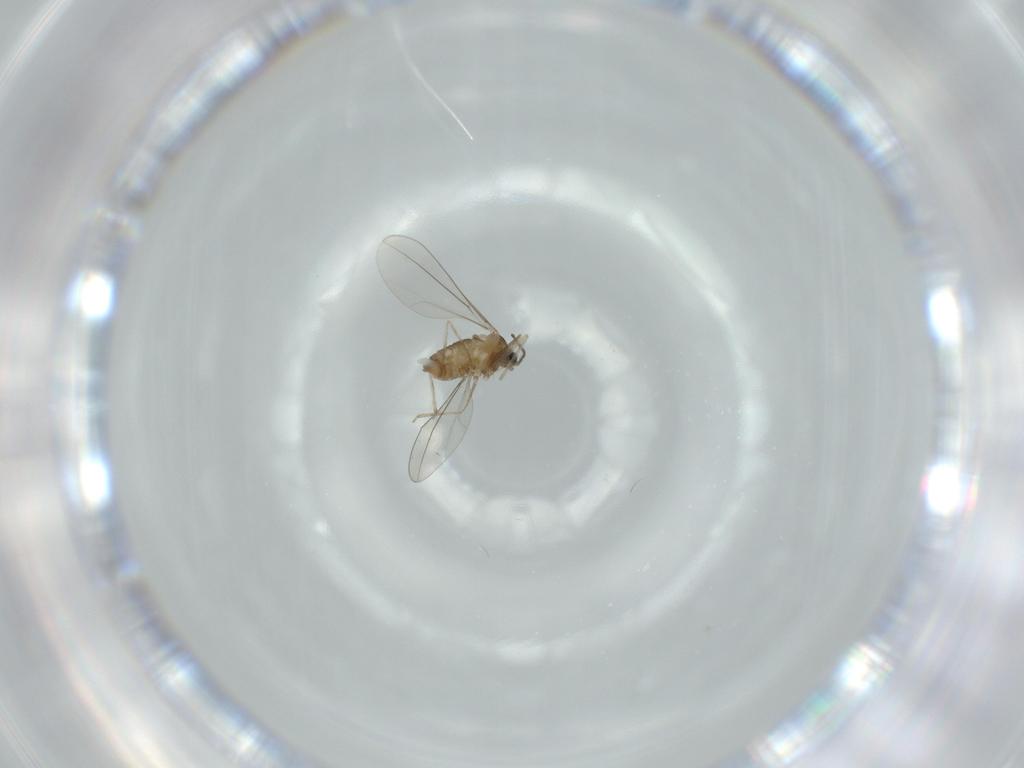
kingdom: Animalia
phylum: Arthropoda
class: Insecta
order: Diptera
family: Cecidomyiidae
